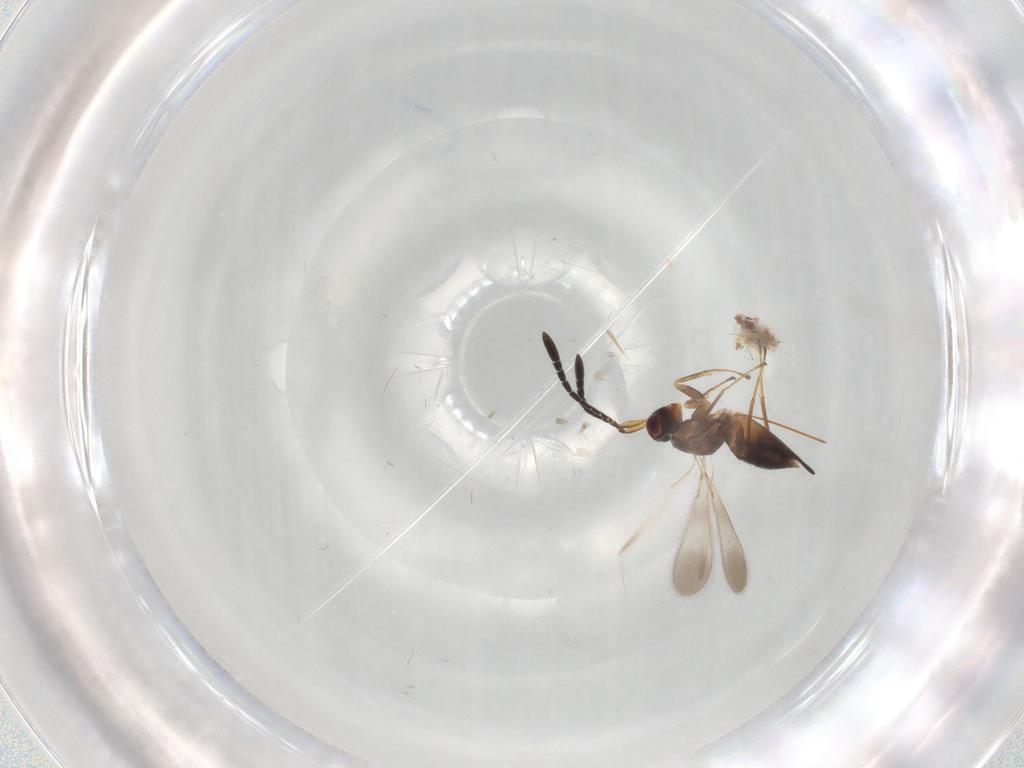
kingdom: Animalia
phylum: Arthropoda
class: Insecta
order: Hymenoptera
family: Mymaridae
